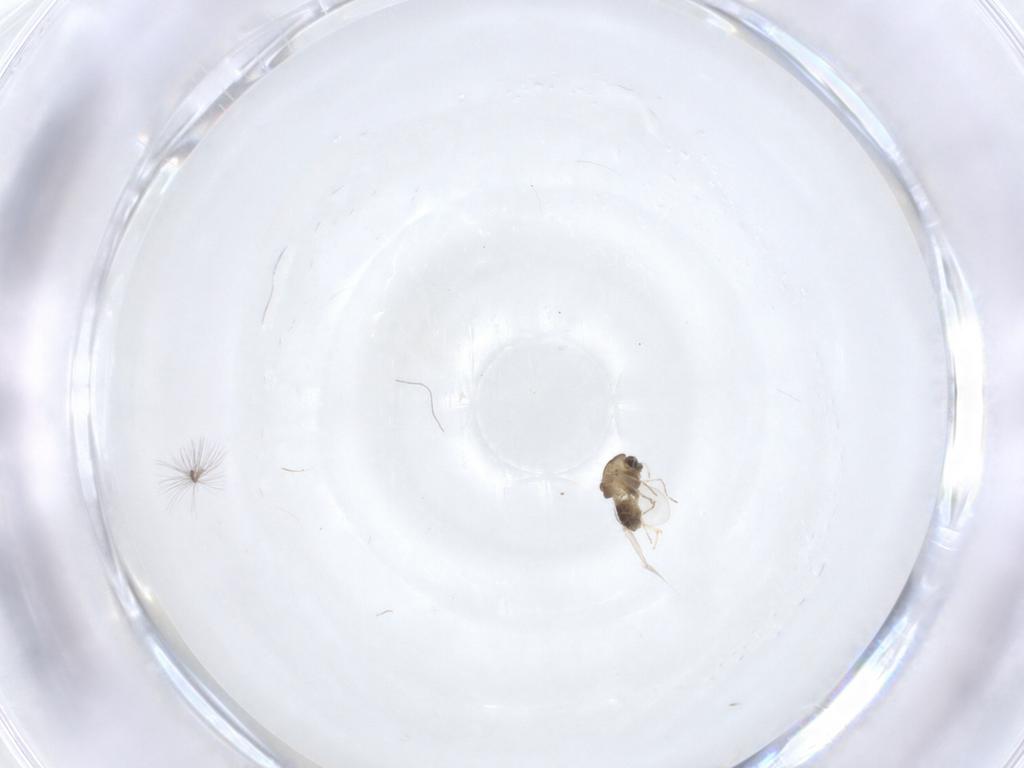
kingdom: Animalia
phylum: Arthropoda
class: Insecta
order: Diptera
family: Chironomidae
